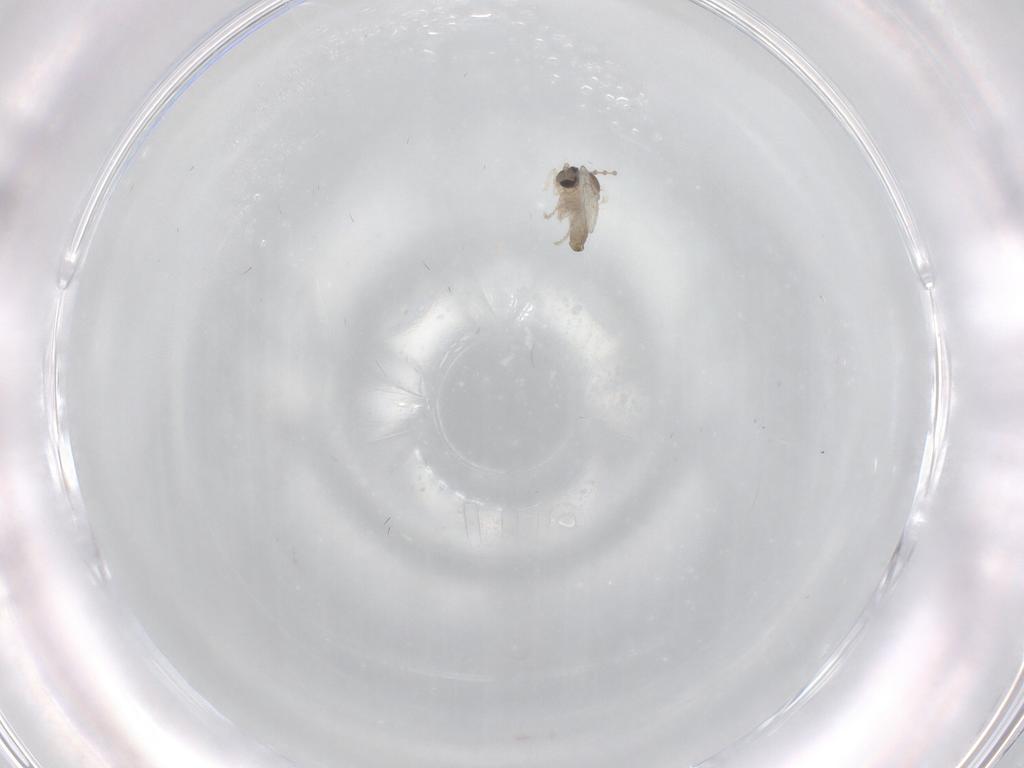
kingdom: Animalia
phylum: Arthropoda
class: Insecta
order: Diptera
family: Cecidomyiidae
